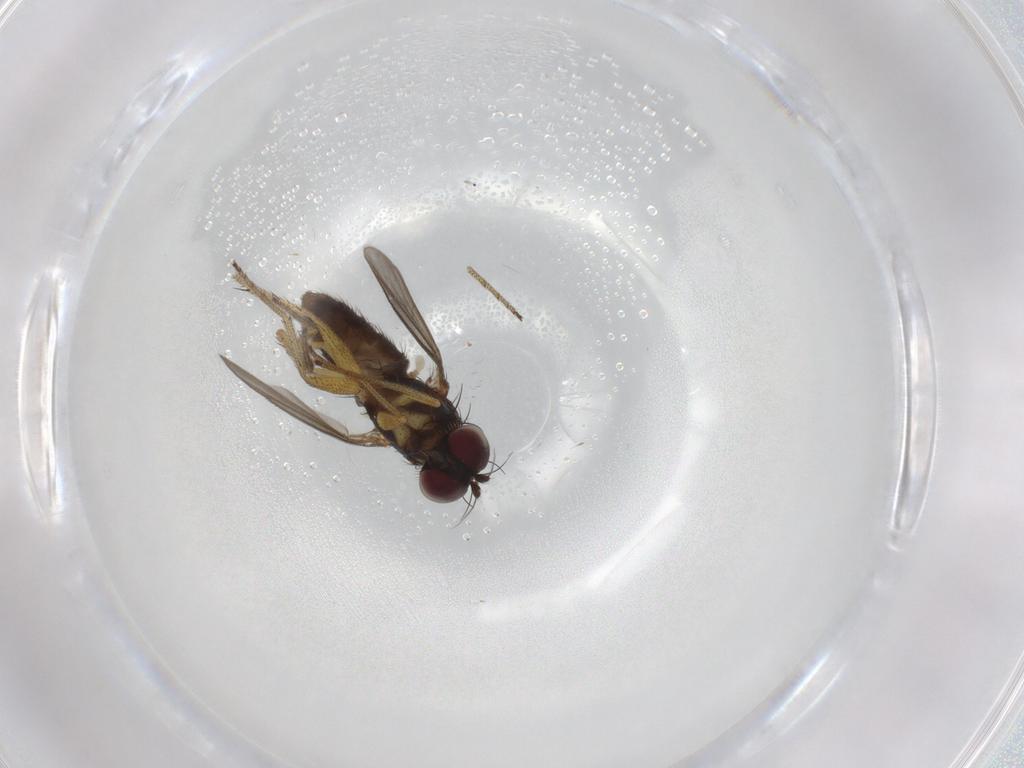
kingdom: Animalia
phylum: Arthropoda
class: Insecta
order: Diptera
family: Dolichopodidae
